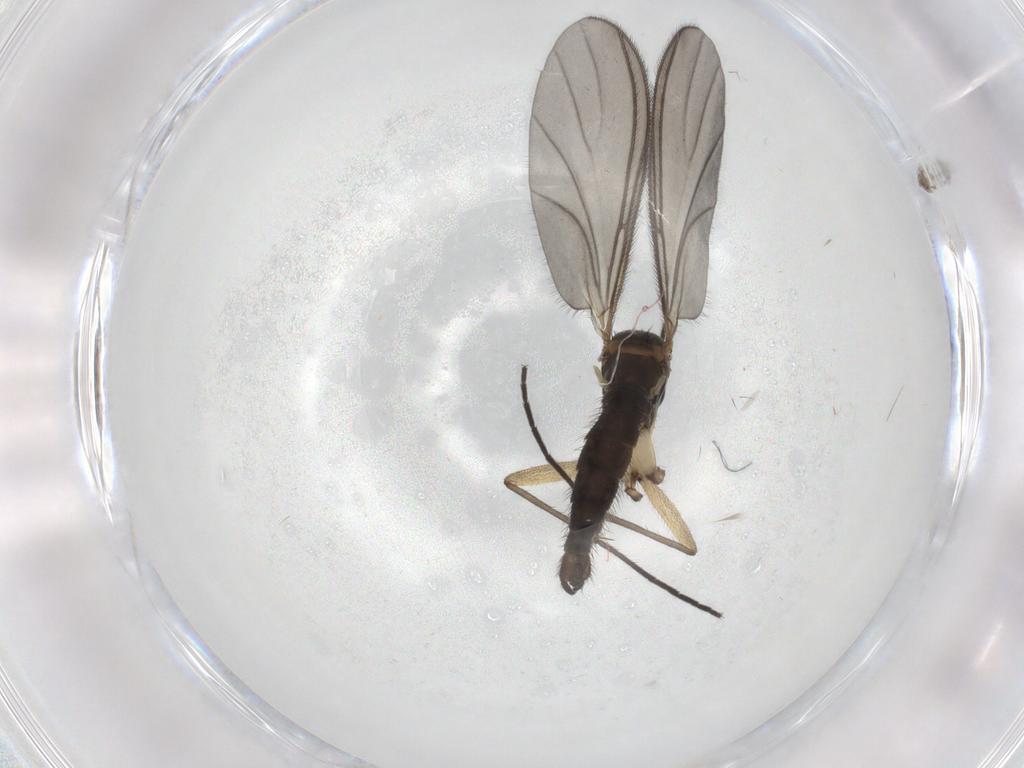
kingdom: Animalia
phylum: Arthropoda
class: Insecta
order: Diptera
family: Sciaridae
